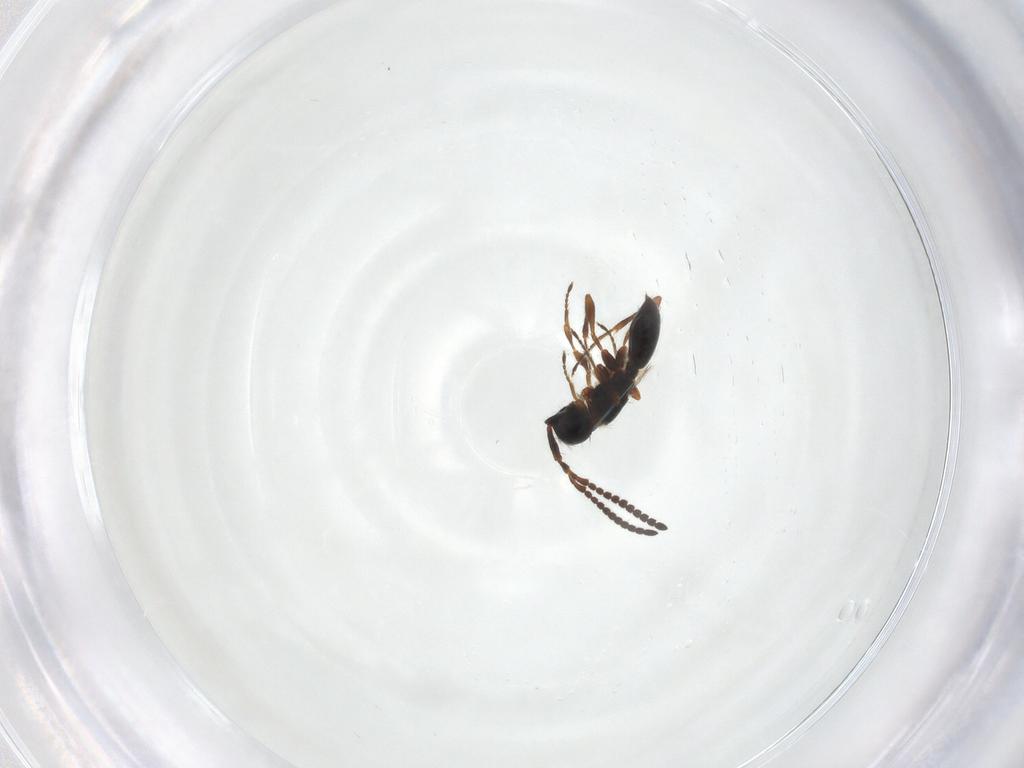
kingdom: Animalia
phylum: Arthropoda
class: Insecta
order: Hymenoptera
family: Diapriidae
